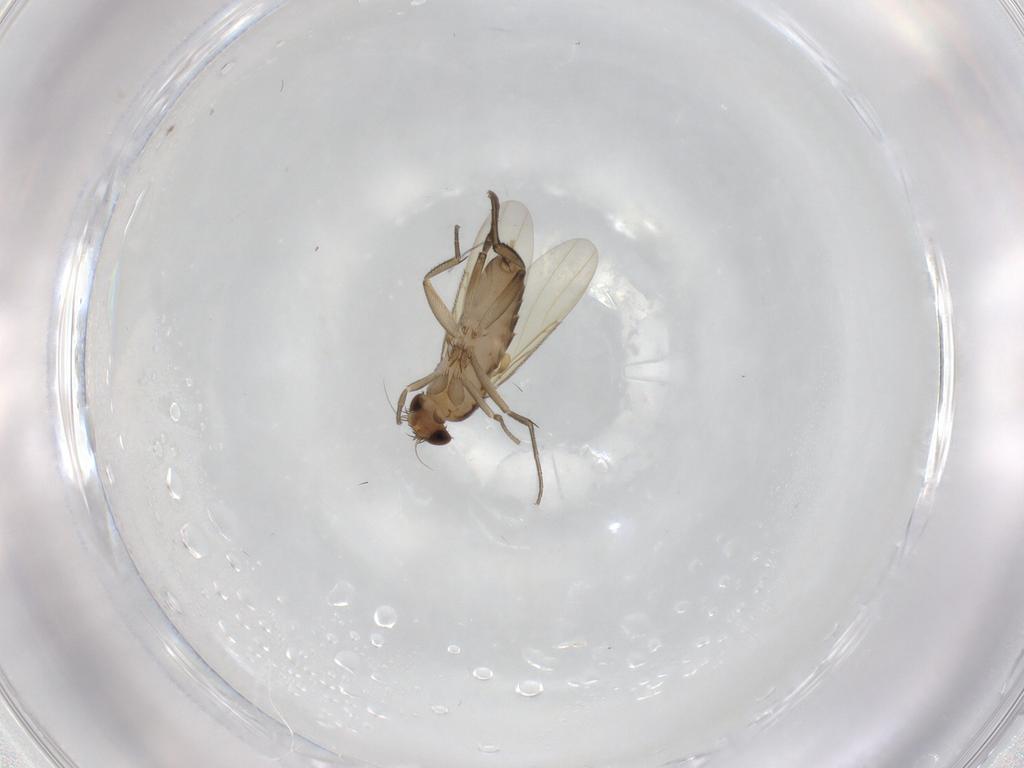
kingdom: Animalia
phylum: Arthropoda
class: Insecta
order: Diptera
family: Phoridae
